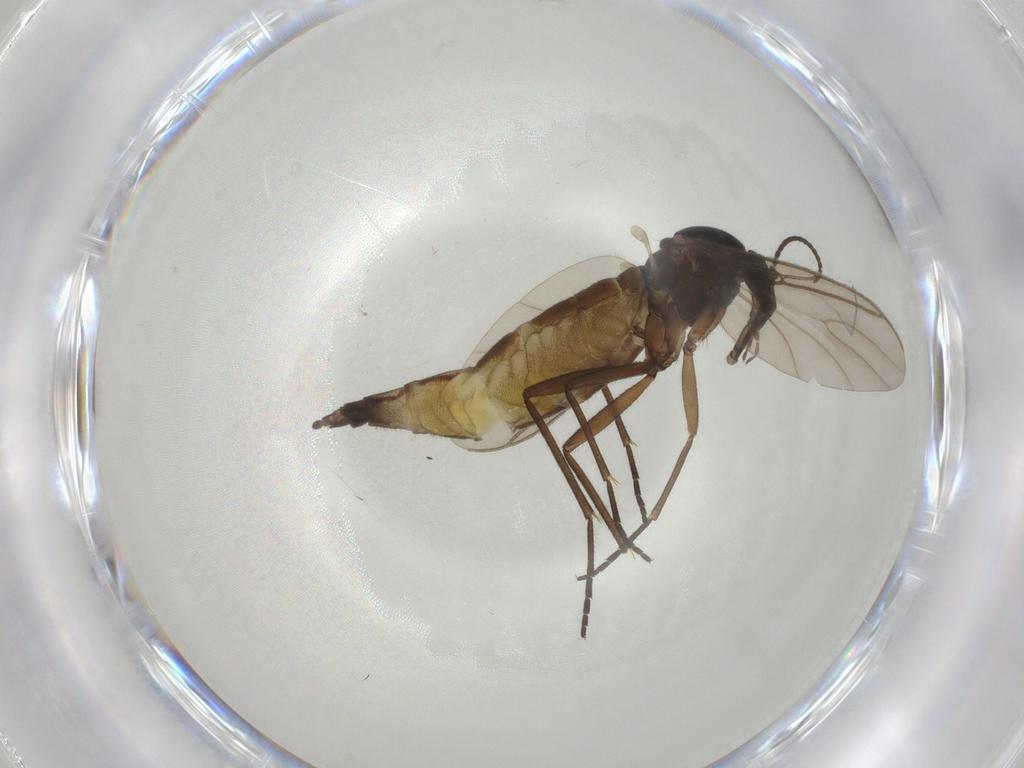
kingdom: Animalia
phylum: Arthropoda
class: Insecta
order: Diptera
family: Sciaridae
